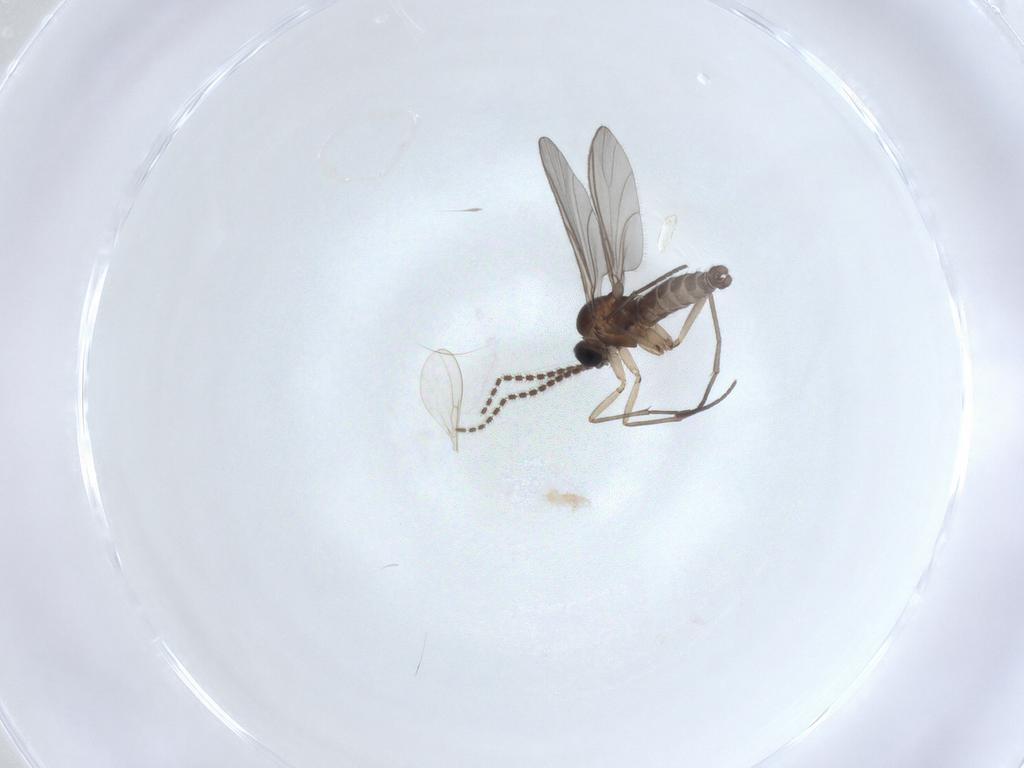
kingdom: Animalia
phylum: Arthropoda
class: Insecta
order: Diptera
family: Sciaridae
